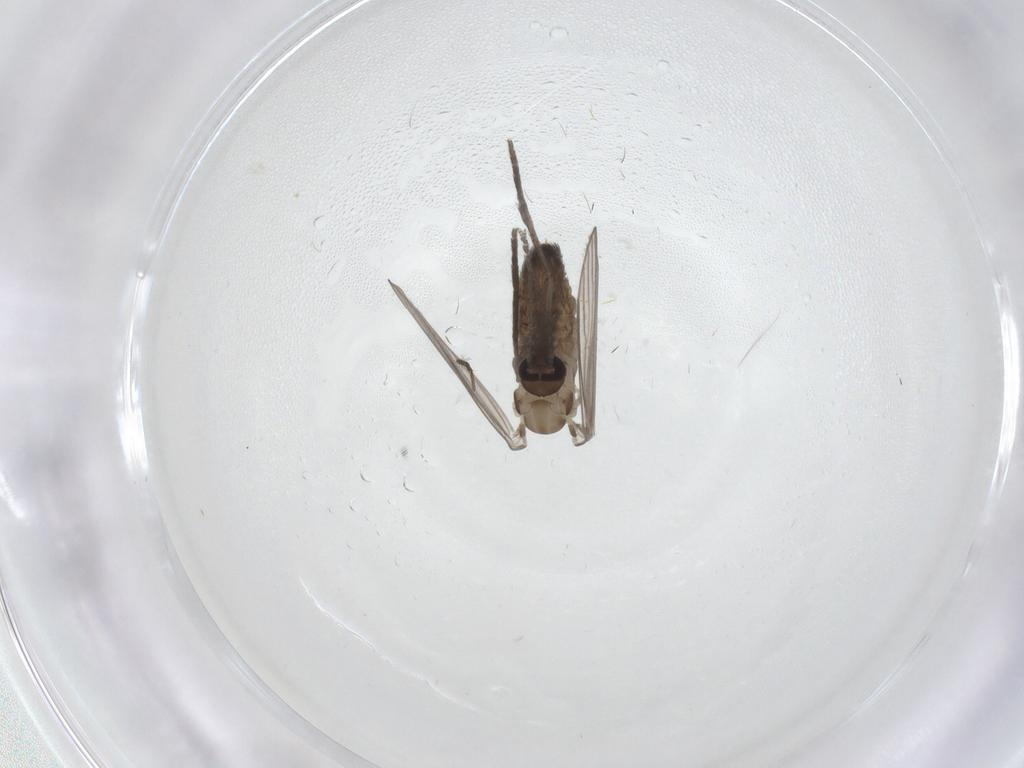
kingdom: Animalia
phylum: Arthropoda
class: Insecta
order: Diptera
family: Psychodidae
